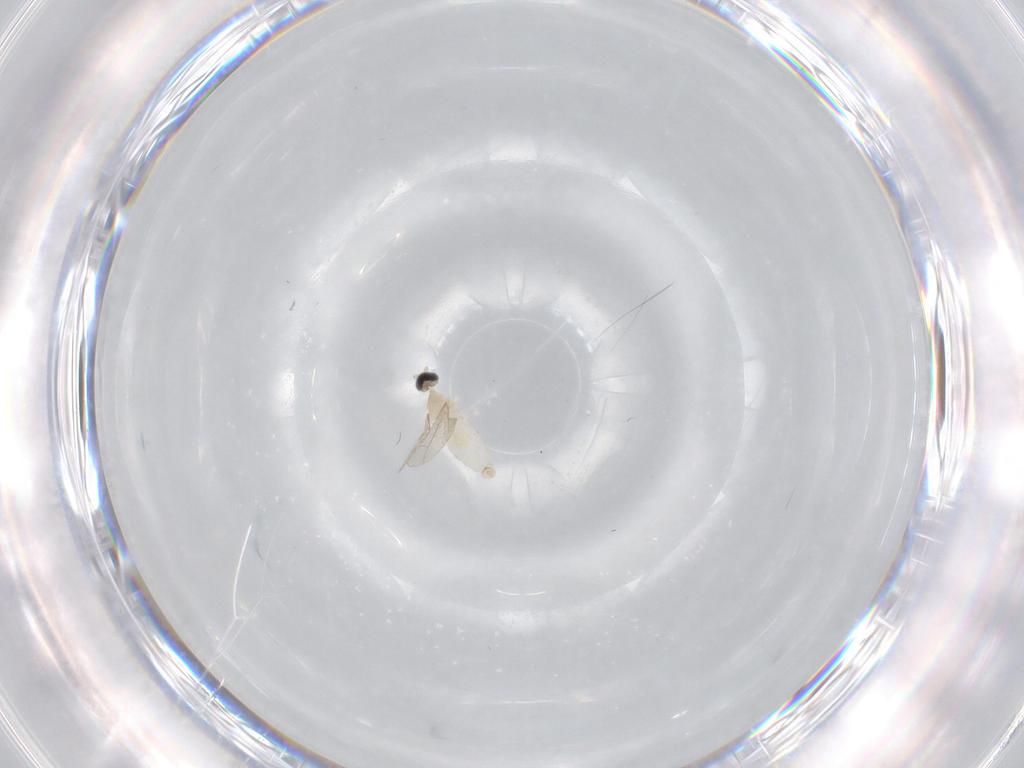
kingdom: Animalia
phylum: Arthropoda
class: Insecta
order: Diptera
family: Cecidomyiidae
